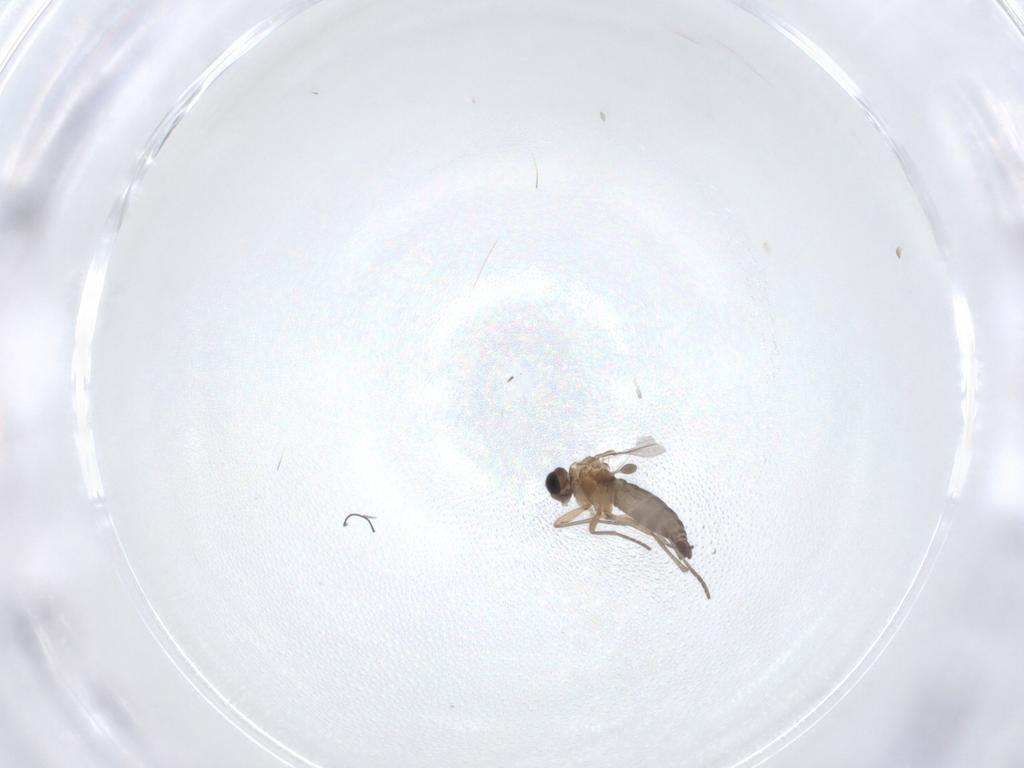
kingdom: Animalia
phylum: Arthropoda
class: Insecta
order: Diptera
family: Sciaridae
